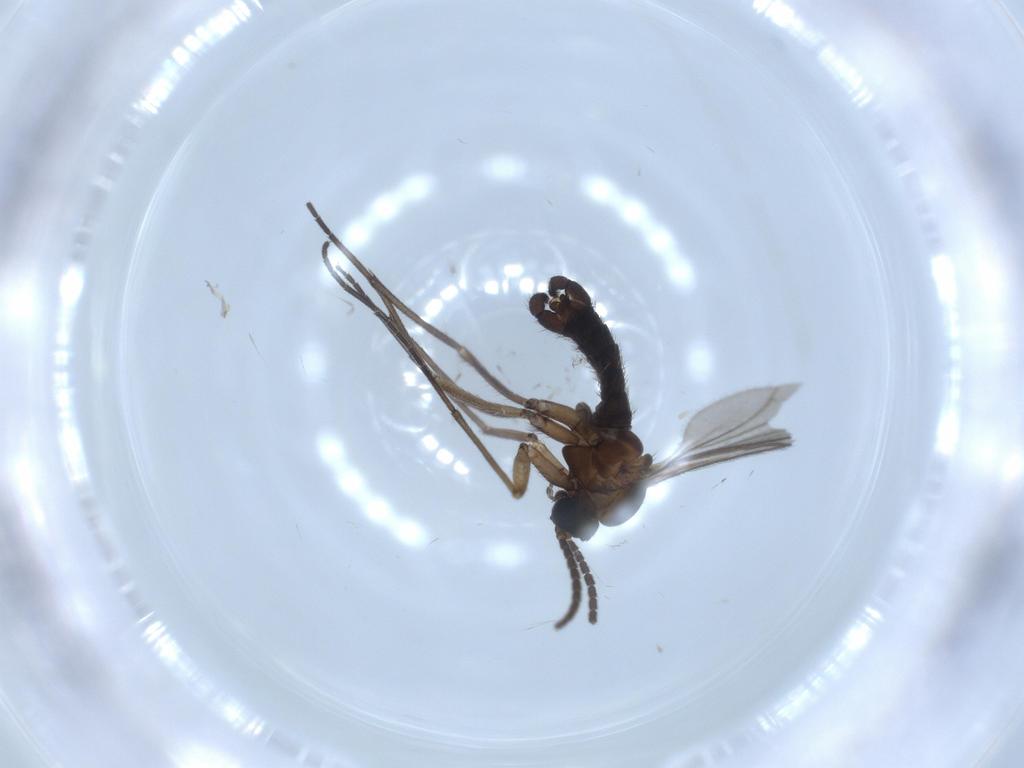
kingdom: Animalia
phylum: Arthropoda
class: Insecta
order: Diptera
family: Sciaridae
